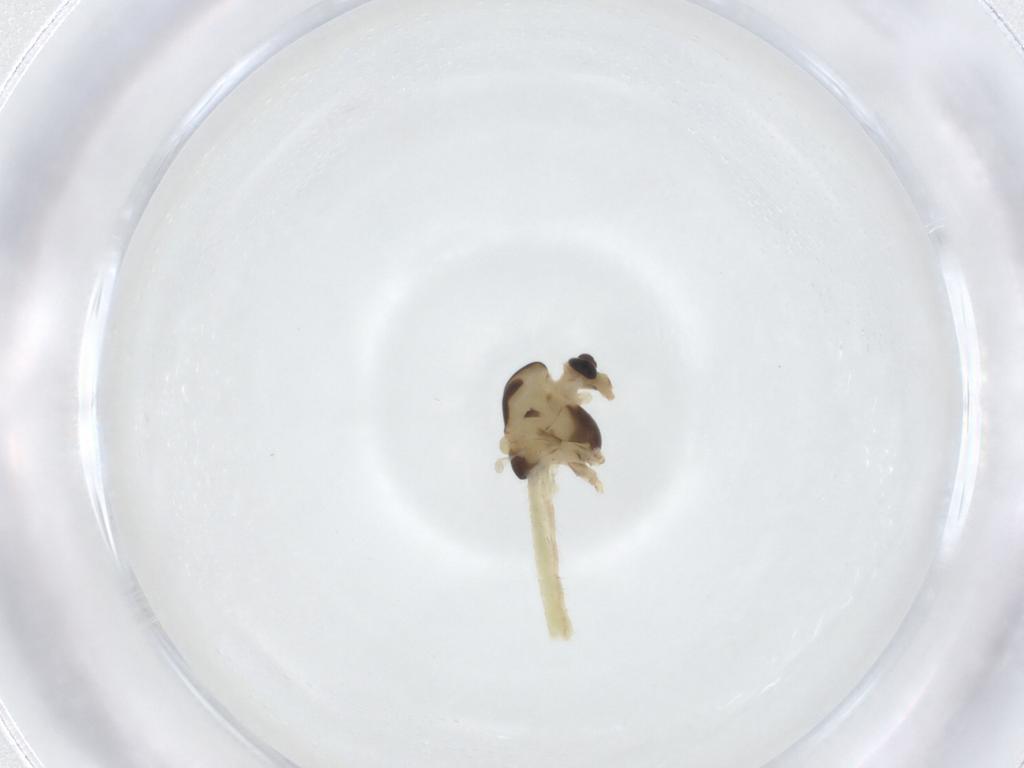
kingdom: Animalia
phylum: Arthropoda
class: Insecta
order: Diptera
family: Chironomidae
